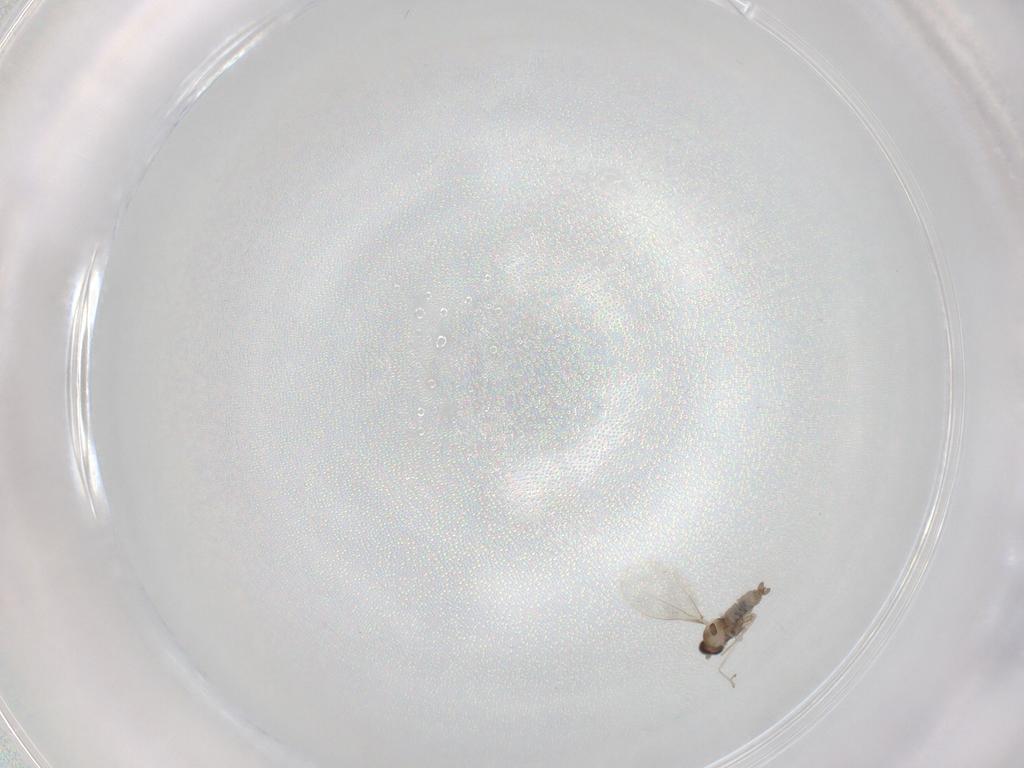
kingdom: Animalia
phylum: Arthropoda
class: Insecta
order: Diptera
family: Cecidomyiidae
